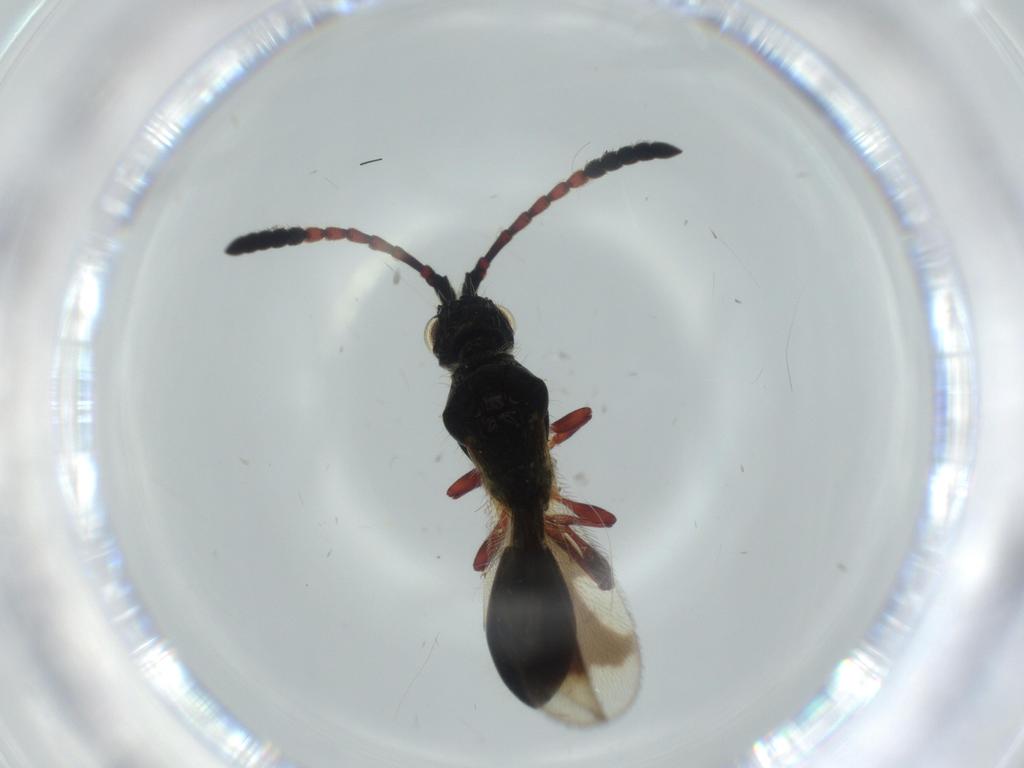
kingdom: Animalia
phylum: Arthropoda
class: Insecta
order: Hymenoptera
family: Diapriidae
